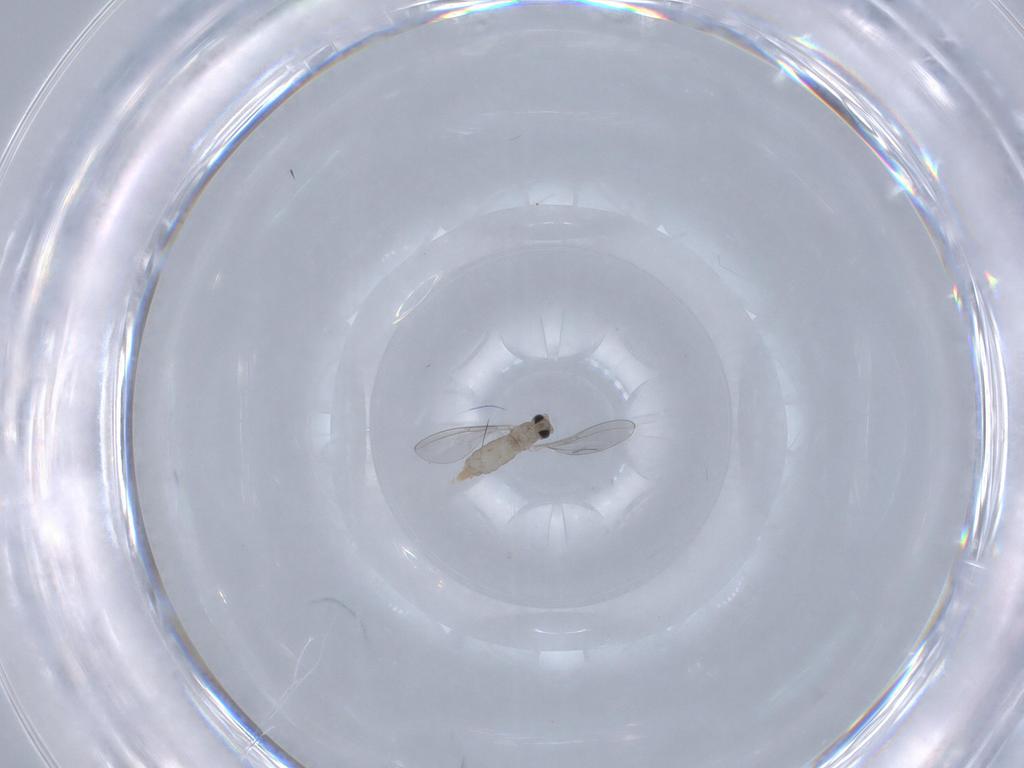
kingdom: Animalia
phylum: Arthropoda
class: Insecta
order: Diptera
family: Cecidomyiidae
